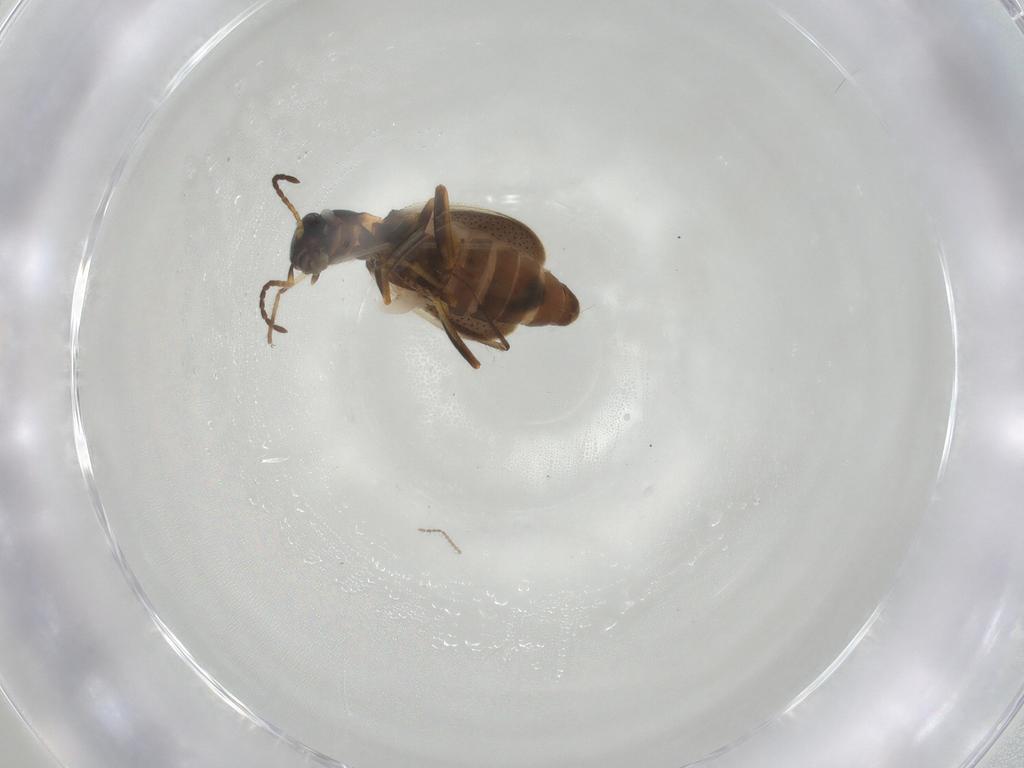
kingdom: Animalia
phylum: Arthropoda
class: Insecta
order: Coleoptera
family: Melyridae
